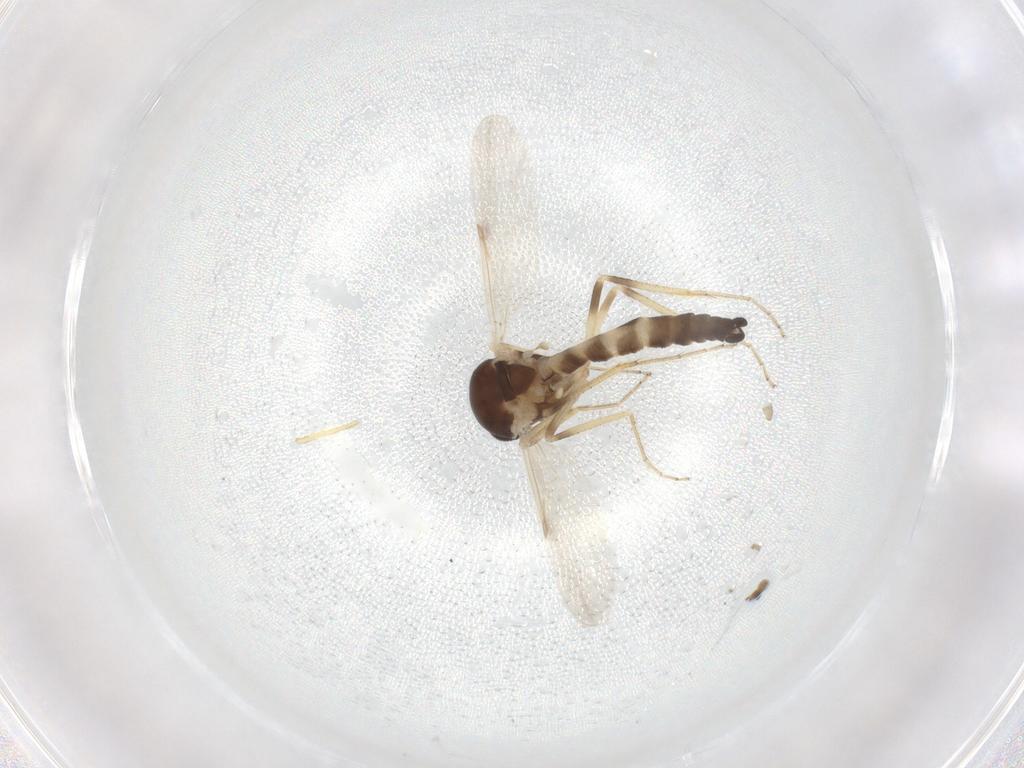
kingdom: Animalia
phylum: Arthropoda
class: Insecta
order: Diptera
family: Ceratopogonidae
